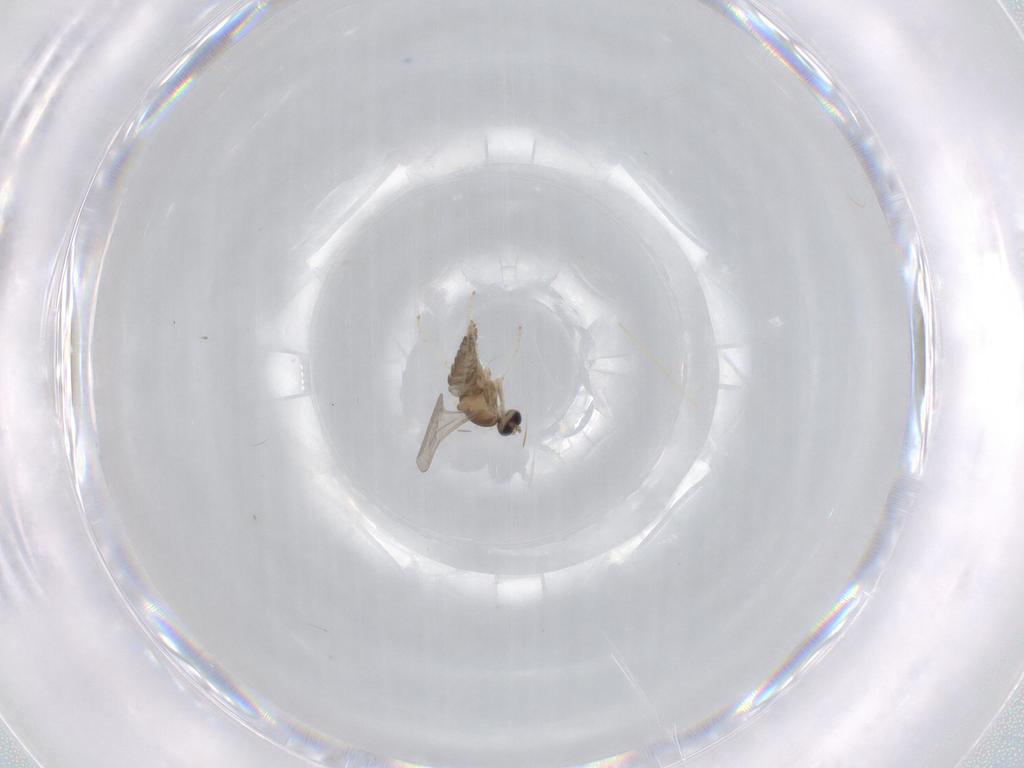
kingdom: Animalia
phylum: Arthropoda
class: Insecta
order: Diptera
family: Cecidomyiidae
